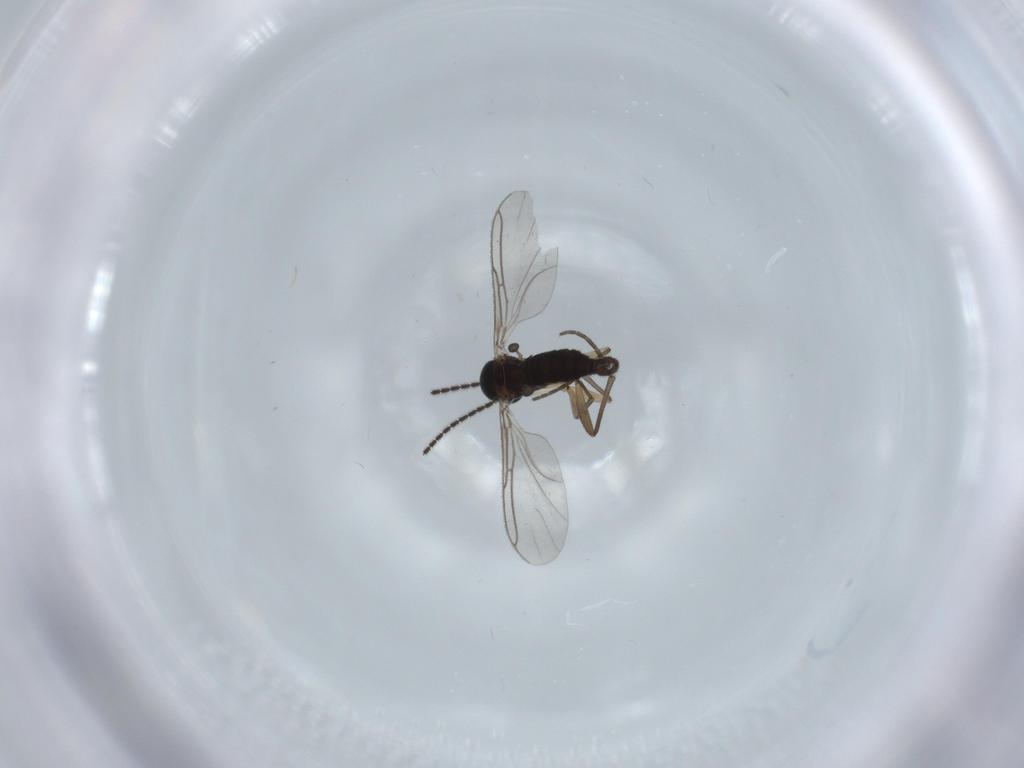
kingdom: Animalia
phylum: Arthropoda
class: Insecta
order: Diptera
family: Sciaridae
